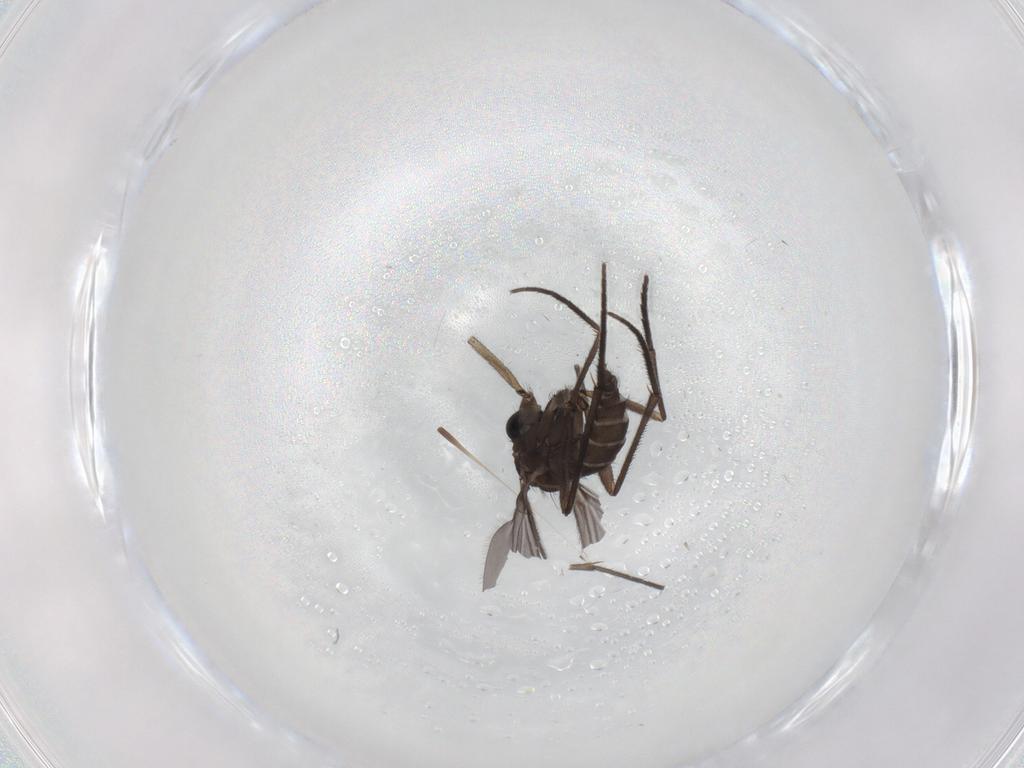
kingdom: Animalia
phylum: Arthropoda
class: Insecta
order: Diptera
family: Sciaridae
